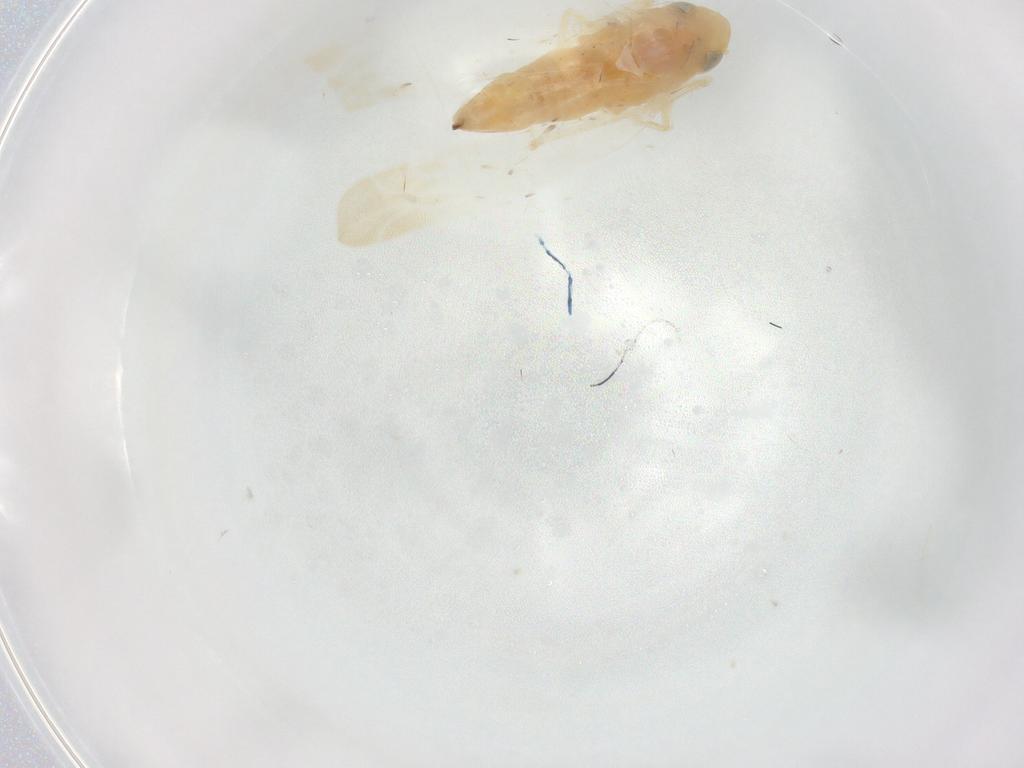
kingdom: Animalia
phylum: Arthropoda
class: Insecta
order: Hemiptera
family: Cicadellidae
